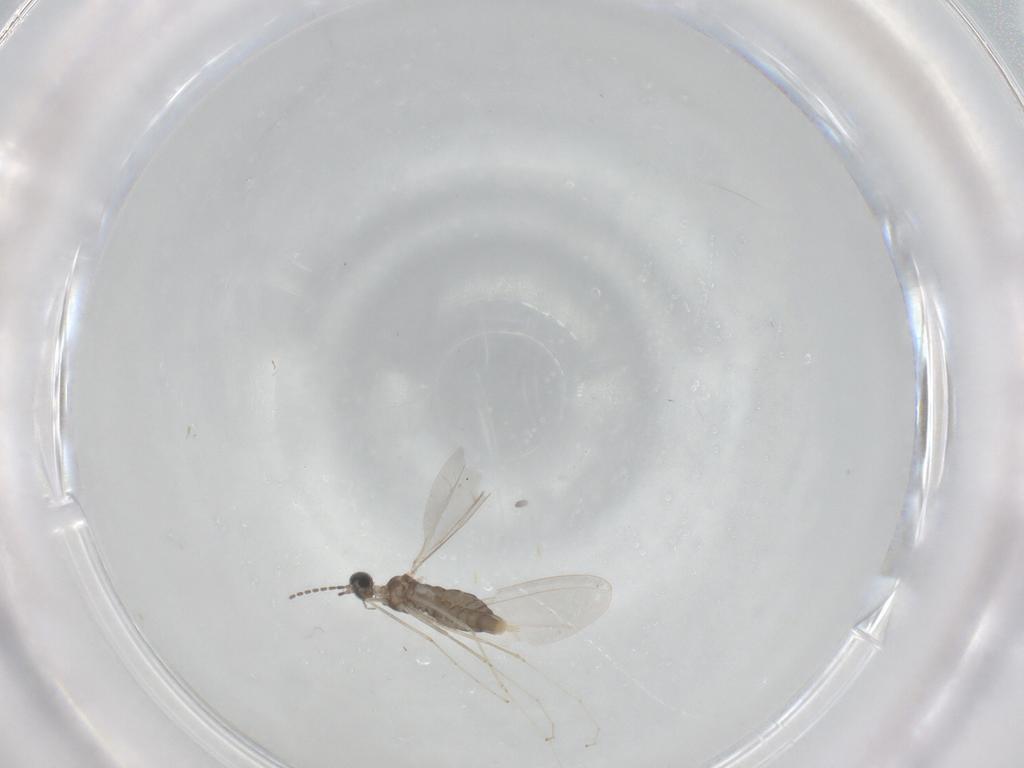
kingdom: Animalia
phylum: Arthropoda
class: Insecta
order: Diptera
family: Cecidomyiidae
